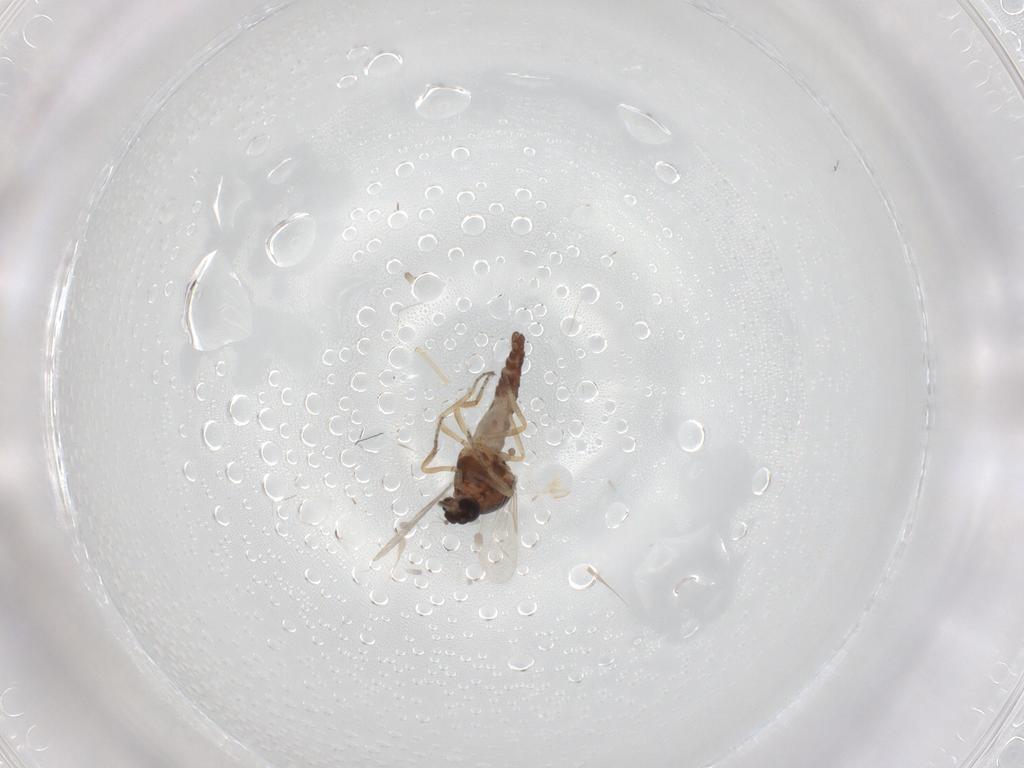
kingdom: Animalia
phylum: Arthropoda
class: Insecta
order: Diptera
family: Ceratopogonidae
